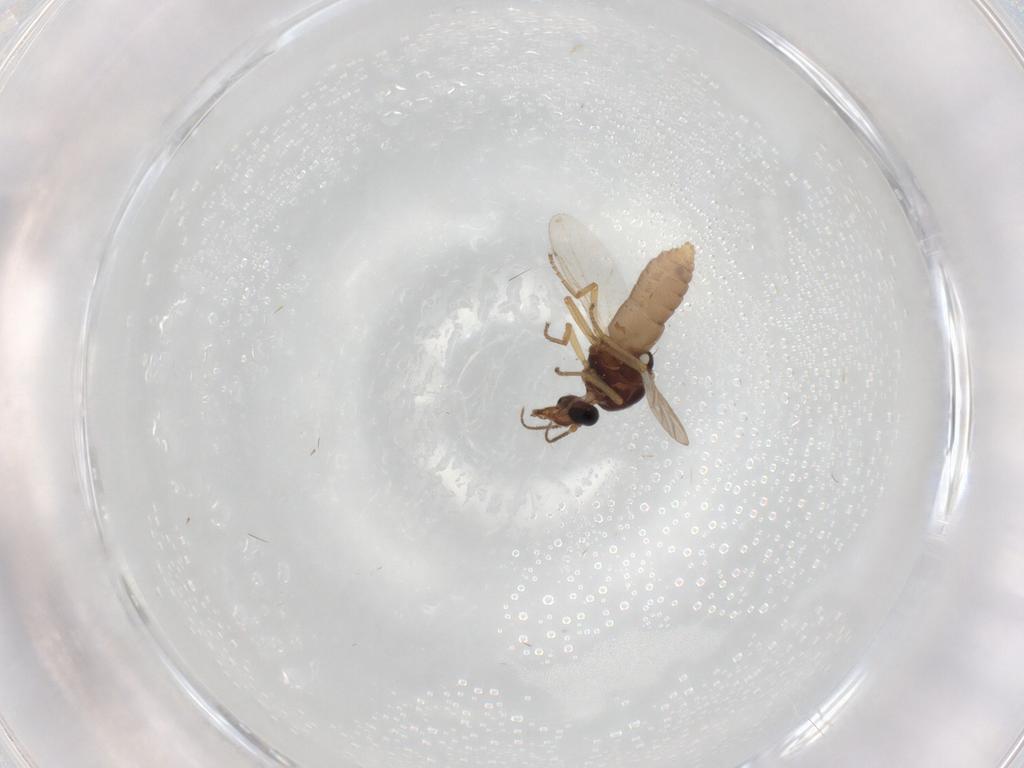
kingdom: Animalia
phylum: Arthropoda
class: Insecta
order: Diptera
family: Ceratopogonidae
